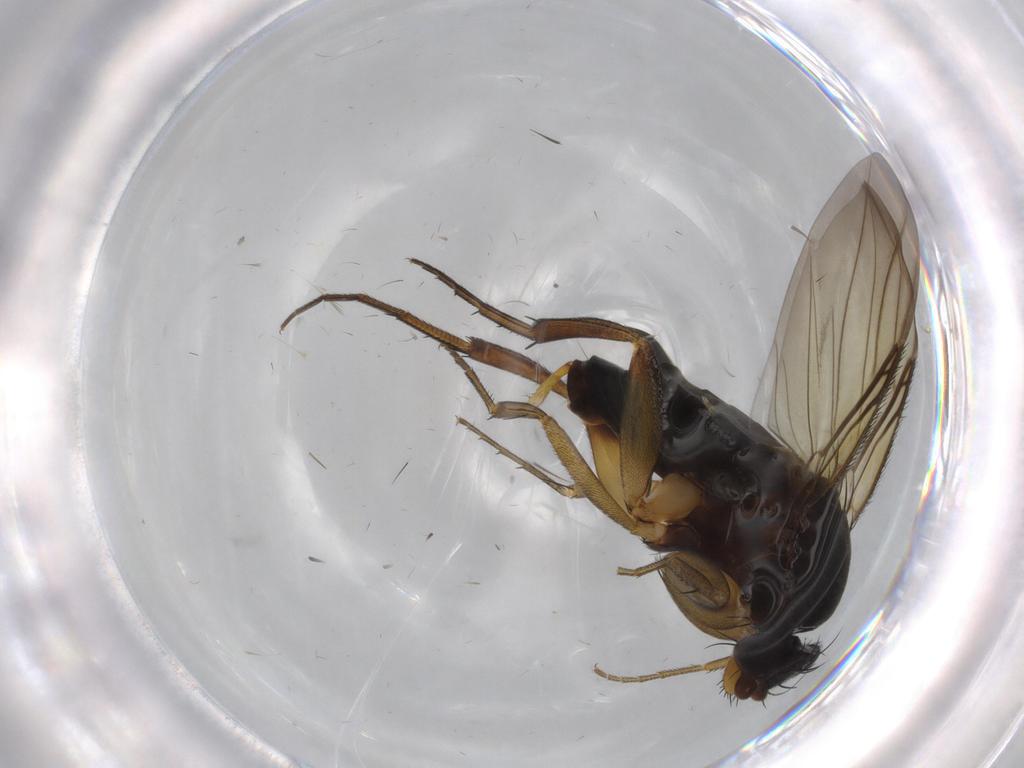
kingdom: Animalia
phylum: Arthropoda
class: Insecta
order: Diptera
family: Phoridae
